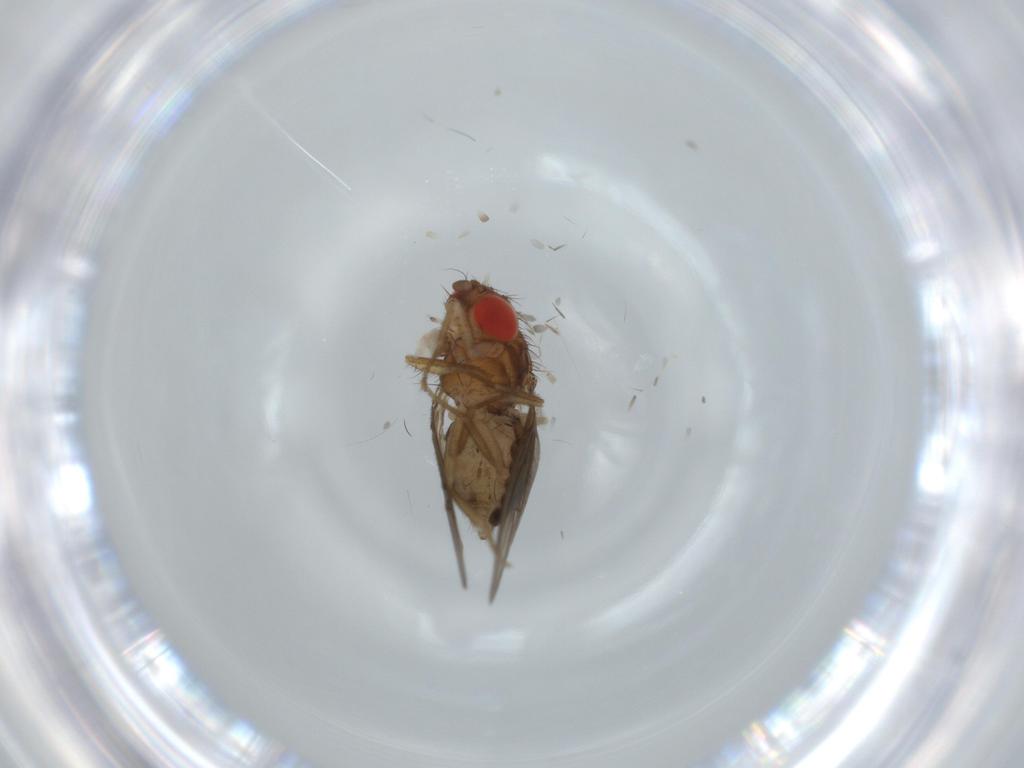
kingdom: Animalia
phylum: Arthropoda
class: Insecta
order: Diptera
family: Drosophilidae
